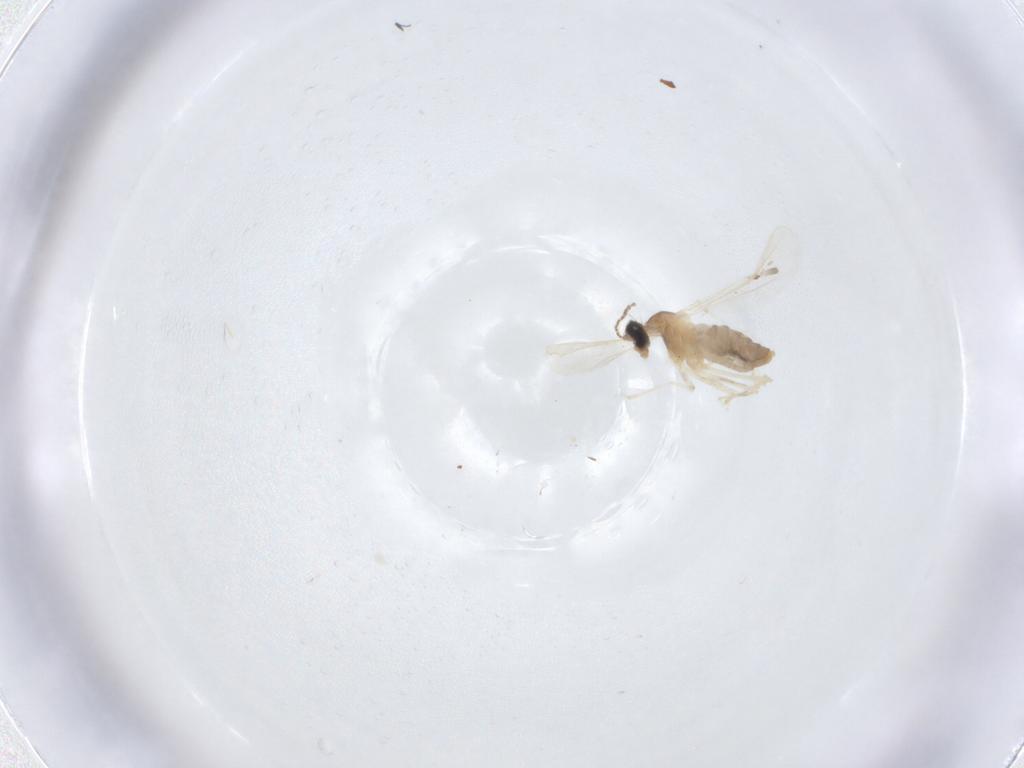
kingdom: Animalia
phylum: Arthropoda
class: Insecta
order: Diptera
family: Cecidomyiidae
